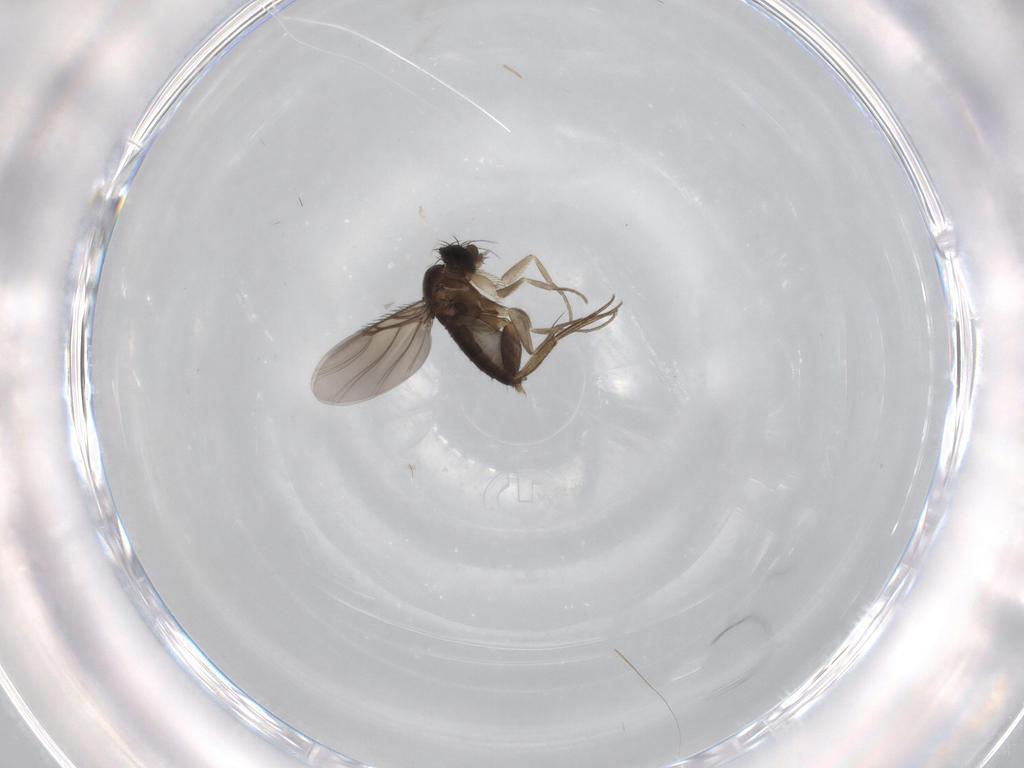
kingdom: Animalia
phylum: Arthropoda
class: Insecta
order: Diptera
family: Phoridae
